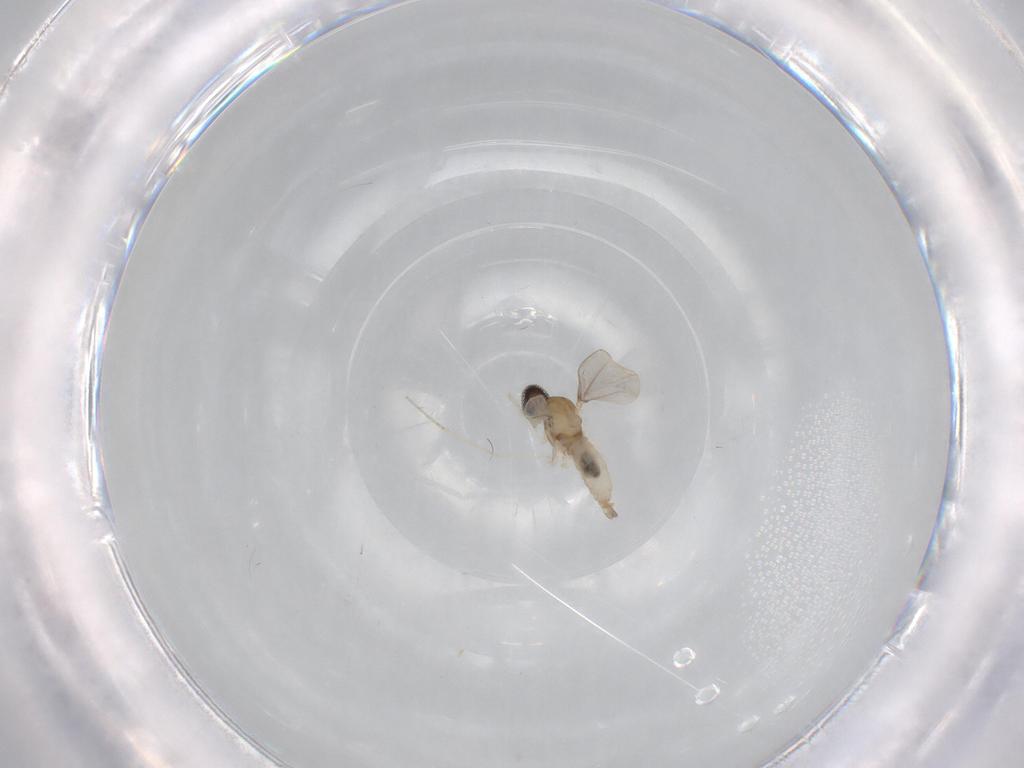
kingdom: Animalia
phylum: Arthropoda
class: Insecta
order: Diptera
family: Cecidomyiidae
